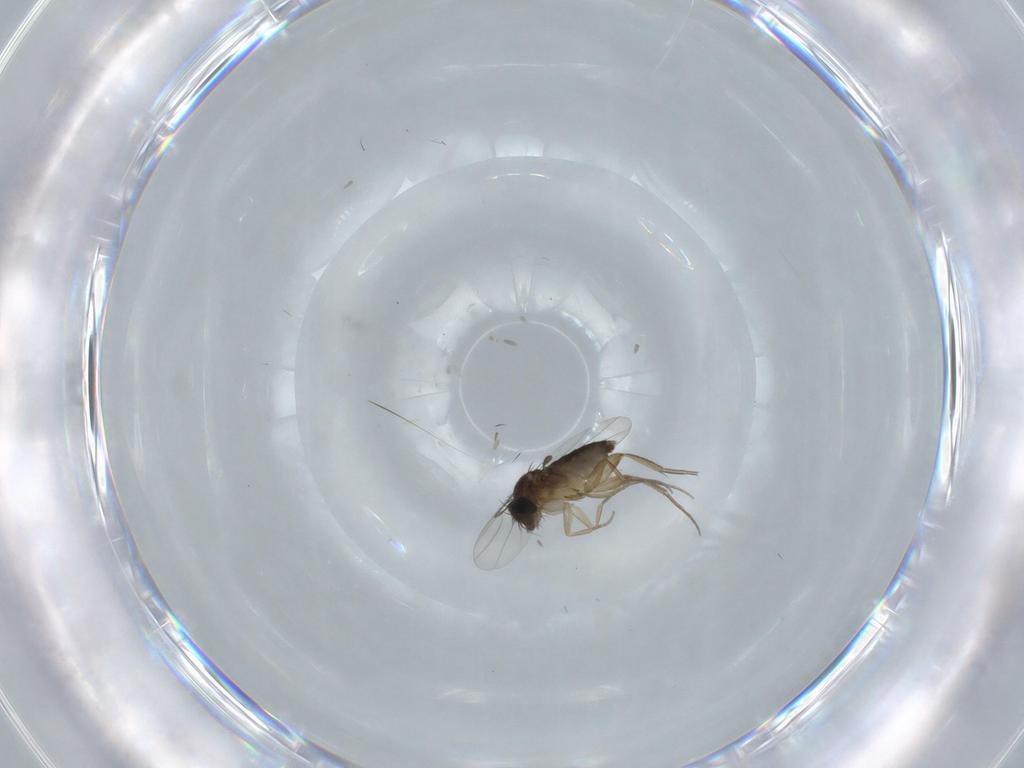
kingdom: Animalia
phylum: Arthropoda
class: Insecta
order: Diptera
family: Phoridae
